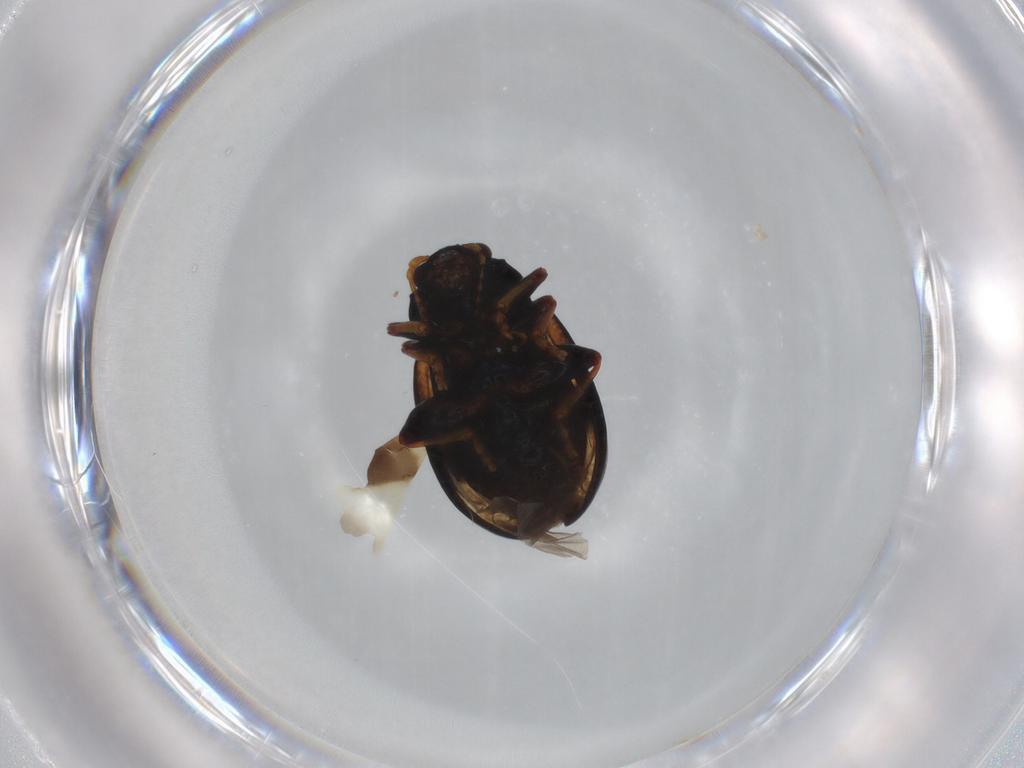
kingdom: Animalia
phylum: Arthropoda
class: Insecta
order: Coleoptera
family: Chrysomelidae
